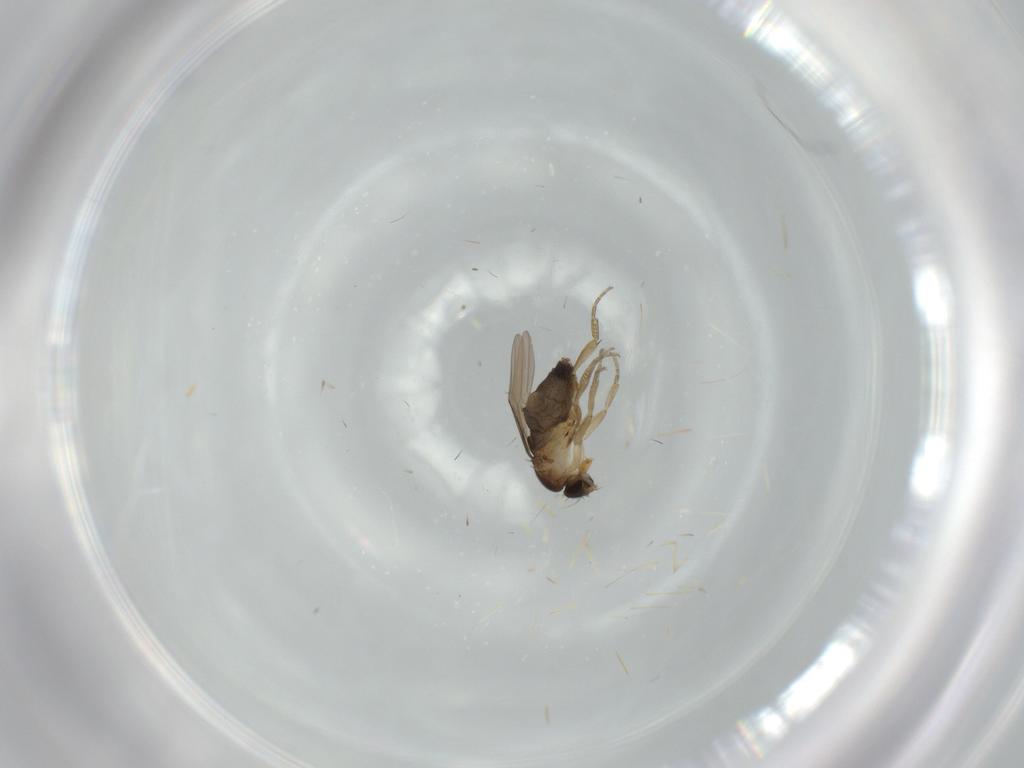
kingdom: Animalia
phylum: Arthropoda
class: Insecta
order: Diptera
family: Phoridae
